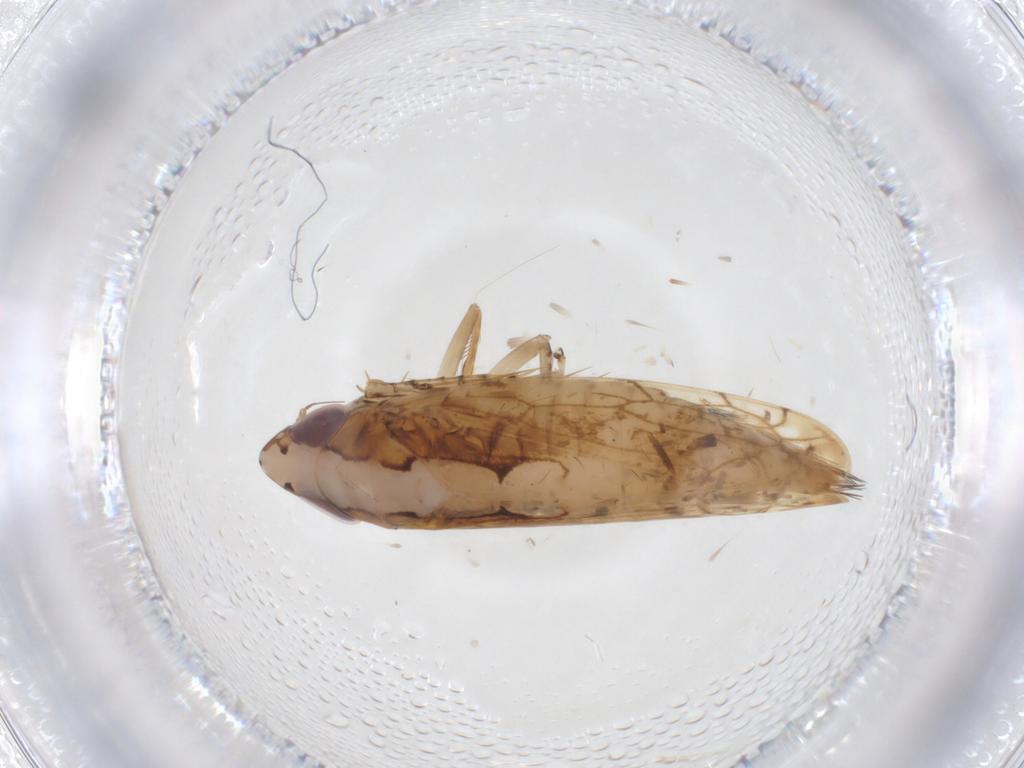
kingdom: Animalia
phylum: Arthropoda
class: Insecta
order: Hemiptera
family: Cicadellidae
